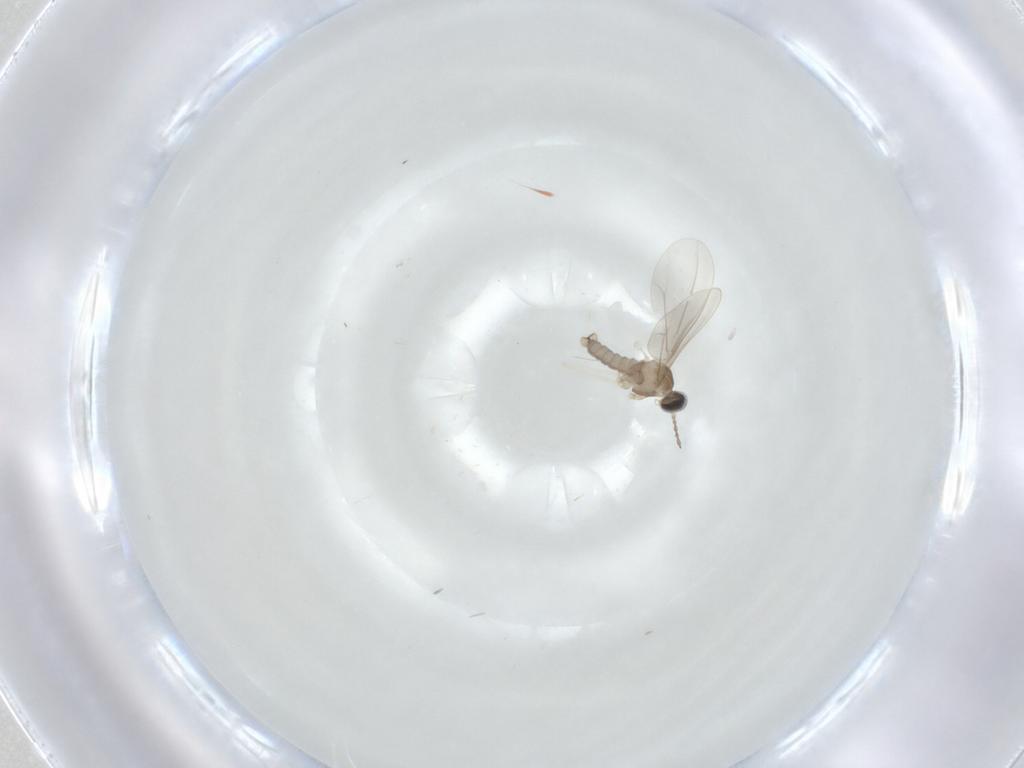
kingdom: Animalia
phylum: Arthropoda
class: Insecta
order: Diptera
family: Cecidomyiidae
